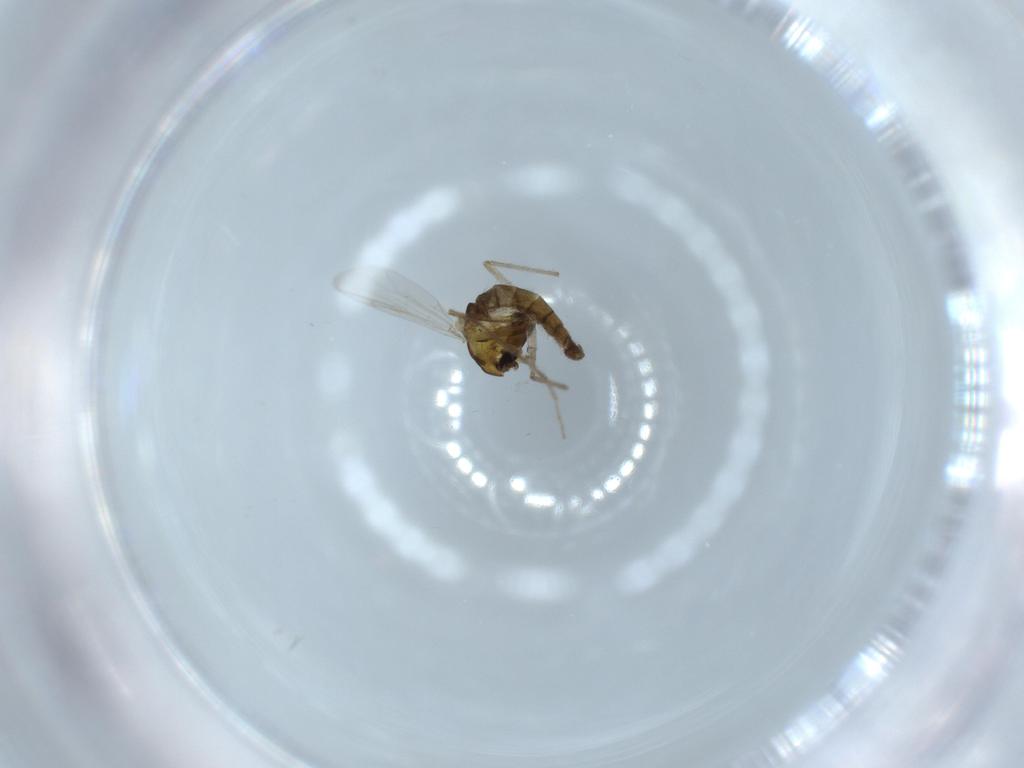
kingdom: Animalia
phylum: Arthropoda
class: Insecta
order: Diptera
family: Chironomidae
